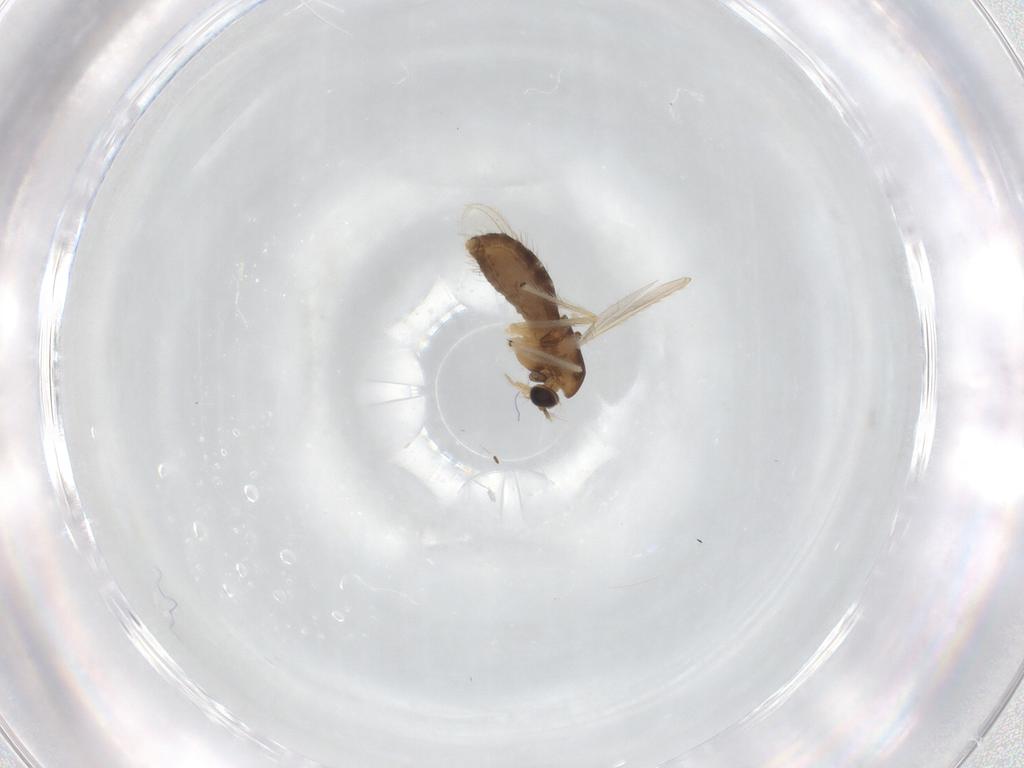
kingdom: Animalia
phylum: Arthropoda
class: Insecta
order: Diptera
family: Chironomidae
